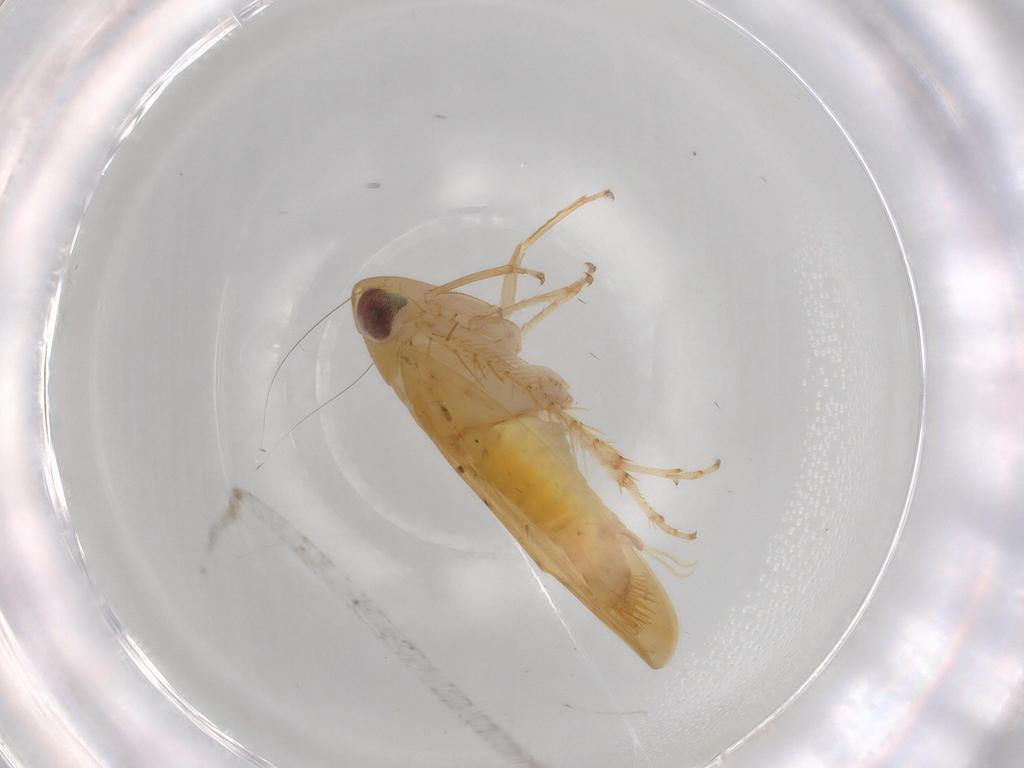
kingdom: Animalia
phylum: Arthropoda
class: Insecta
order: Hemiptera
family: Cicadellidae
